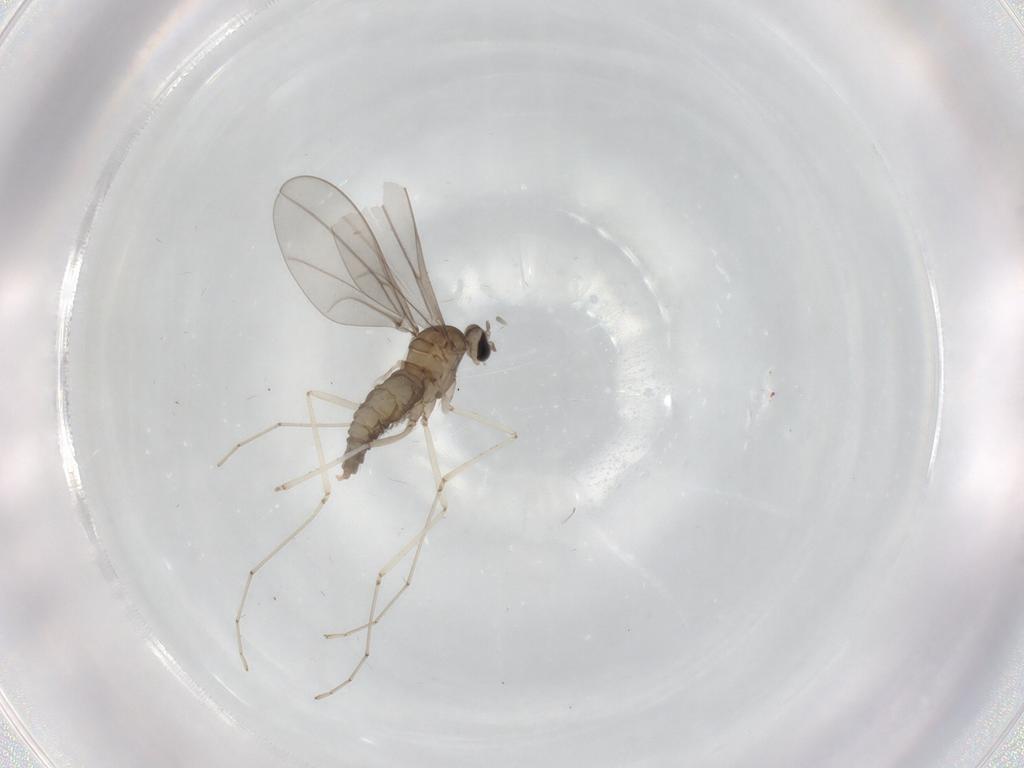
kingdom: Animalia
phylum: Arthropoda
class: Insecta
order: Diptera
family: Cecidomyiidae
